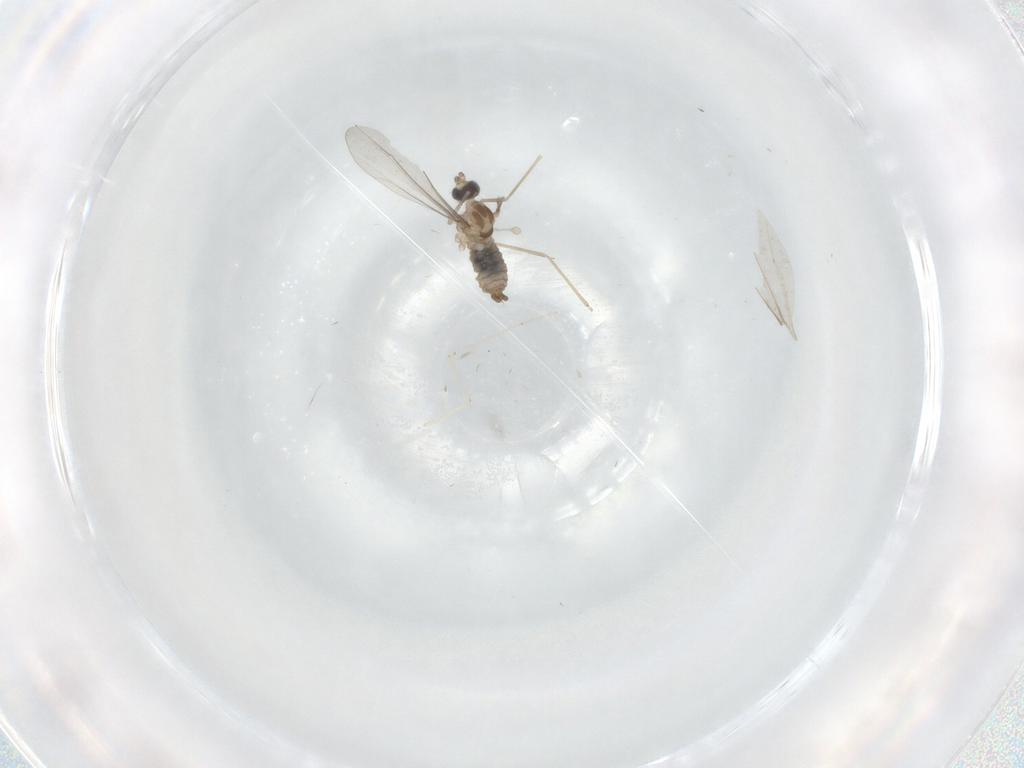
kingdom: Animalia
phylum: Arthropoda
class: Insecta
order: Diptera
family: Cecidomyiidae
